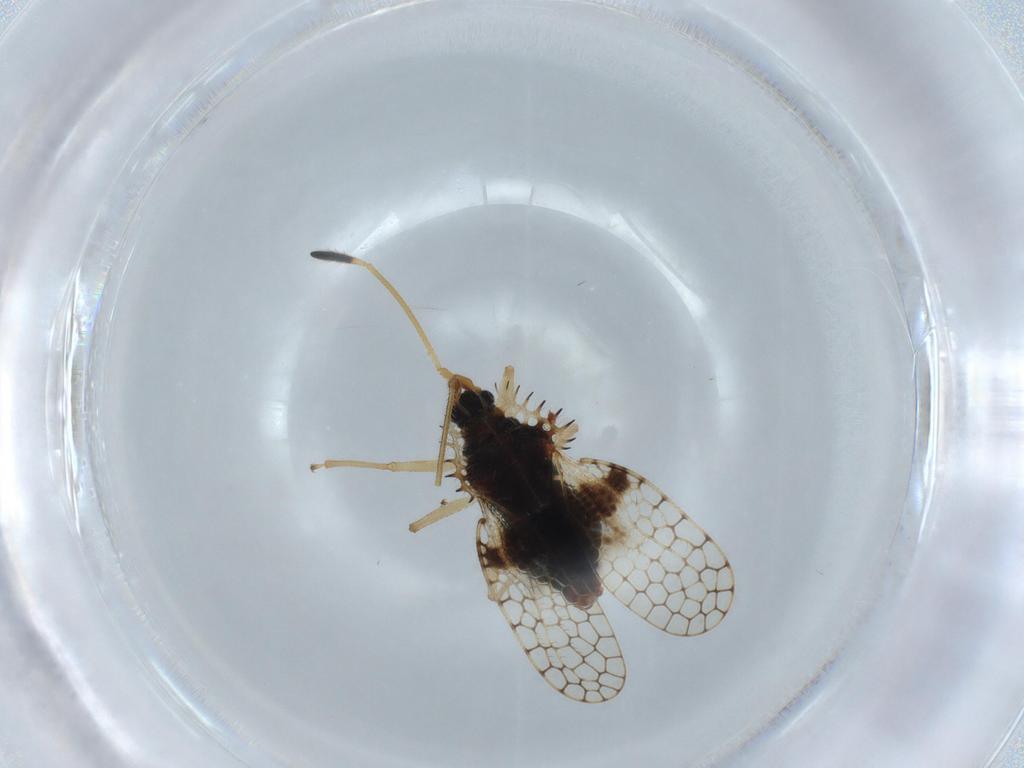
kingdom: Animalia
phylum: Arthropoda
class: Insecta
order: Hemiptera
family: Tingidae
